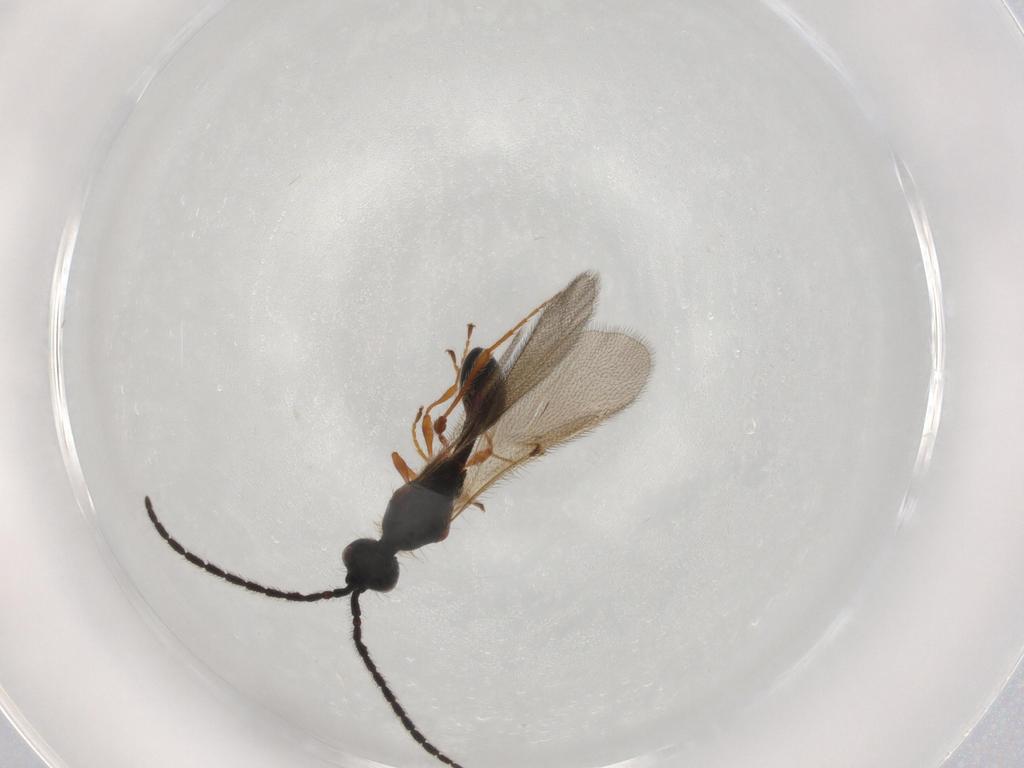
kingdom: Animalia
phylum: Arthropoda
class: Insecta
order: Hymenoptera
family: Diapriidae
